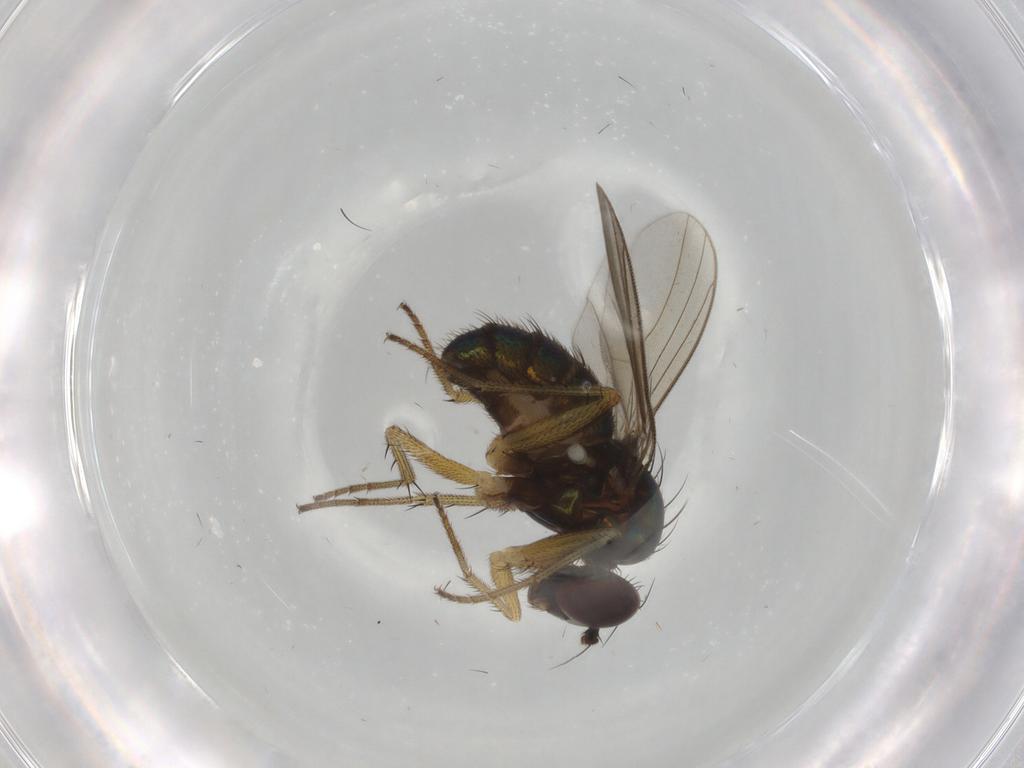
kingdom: Animalia
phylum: Arthropoda
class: Insecta
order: Diptera
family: Dolichopodidae
